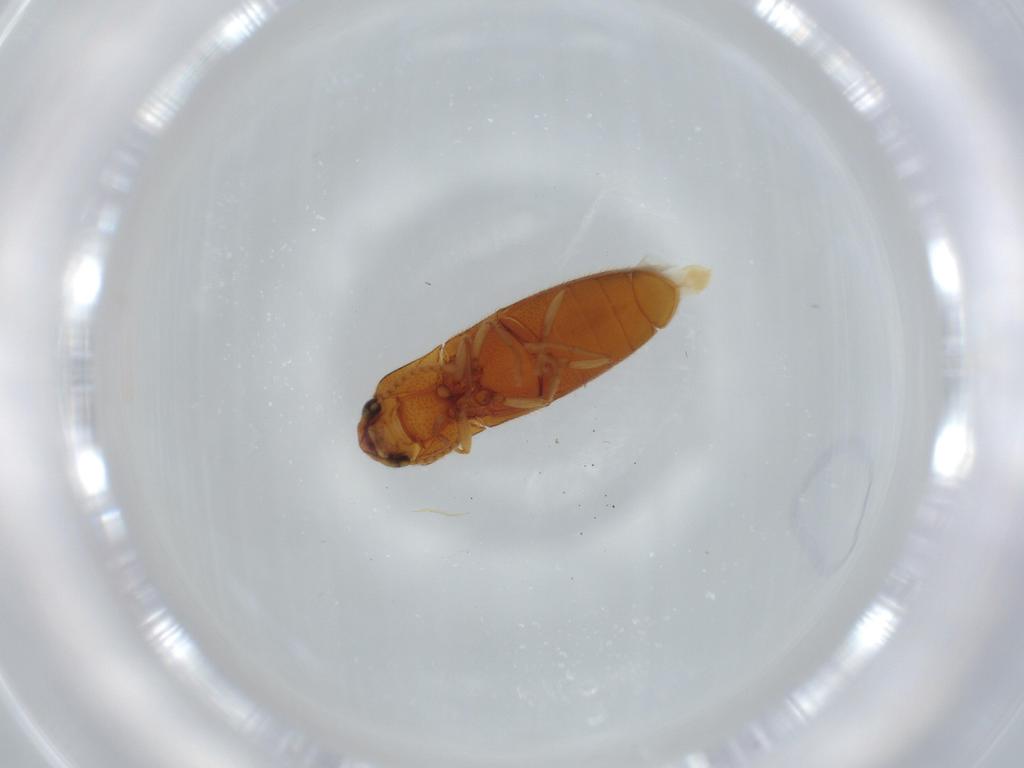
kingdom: Animalia
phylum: Arthropoda
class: Insecta
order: Coleoptera
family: Elateridae
